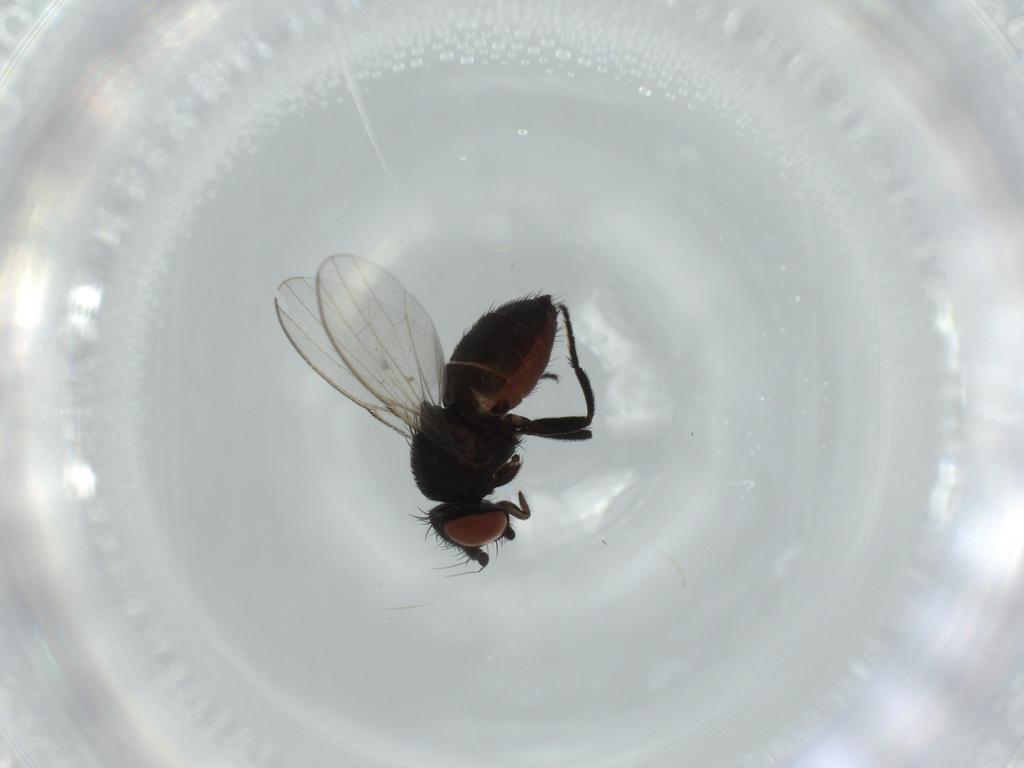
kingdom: Animalia
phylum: Arthropoda
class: Insecta
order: Diptera
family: Milichiidae
